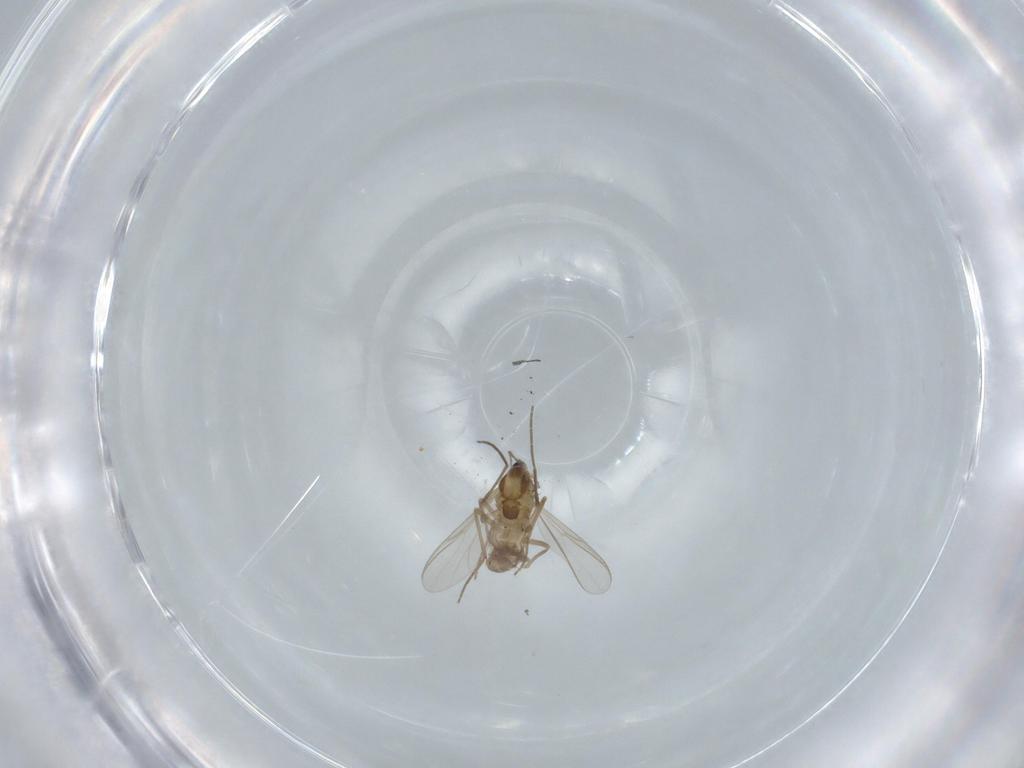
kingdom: Animalia
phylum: Arthropoda
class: Insecta
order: Diptera
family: Chironomidae
